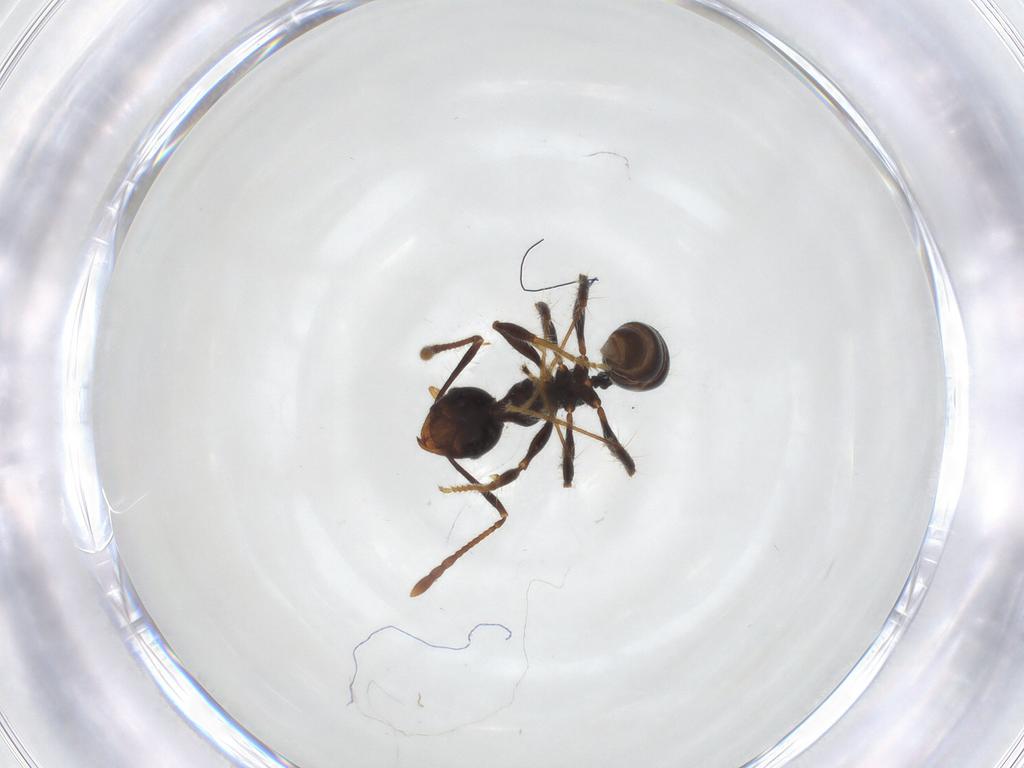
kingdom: Animalia
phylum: Arthropoda
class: Insecta
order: Hymenoptera
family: Formicidae
